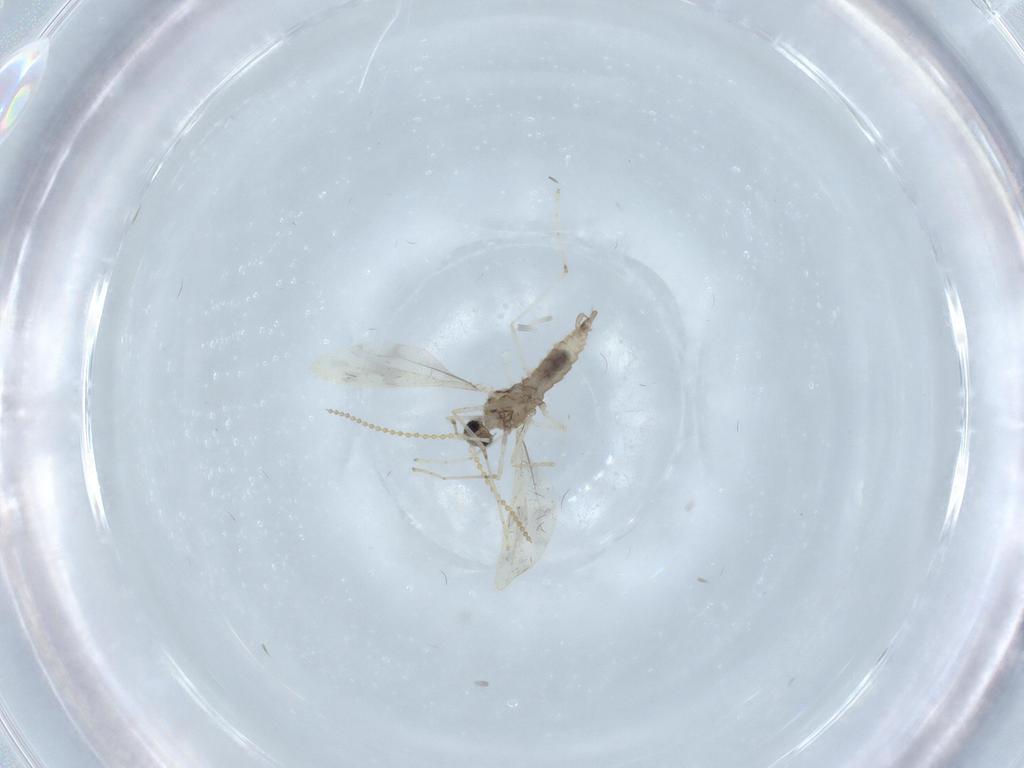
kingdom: Animalia
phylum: Arthropoda
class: Insecta
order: Diptera
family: Cecidomyiidae
